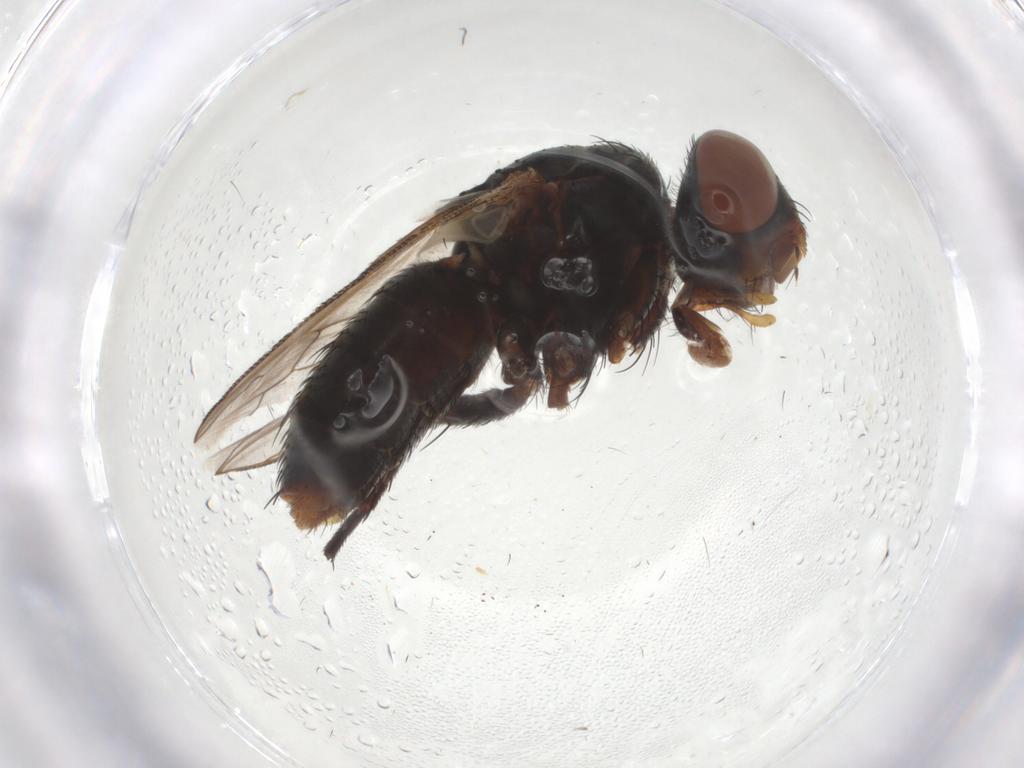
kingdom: Animalia
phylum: Arthropoda
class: Insecta
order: Diptera
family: Sarcophagidae
